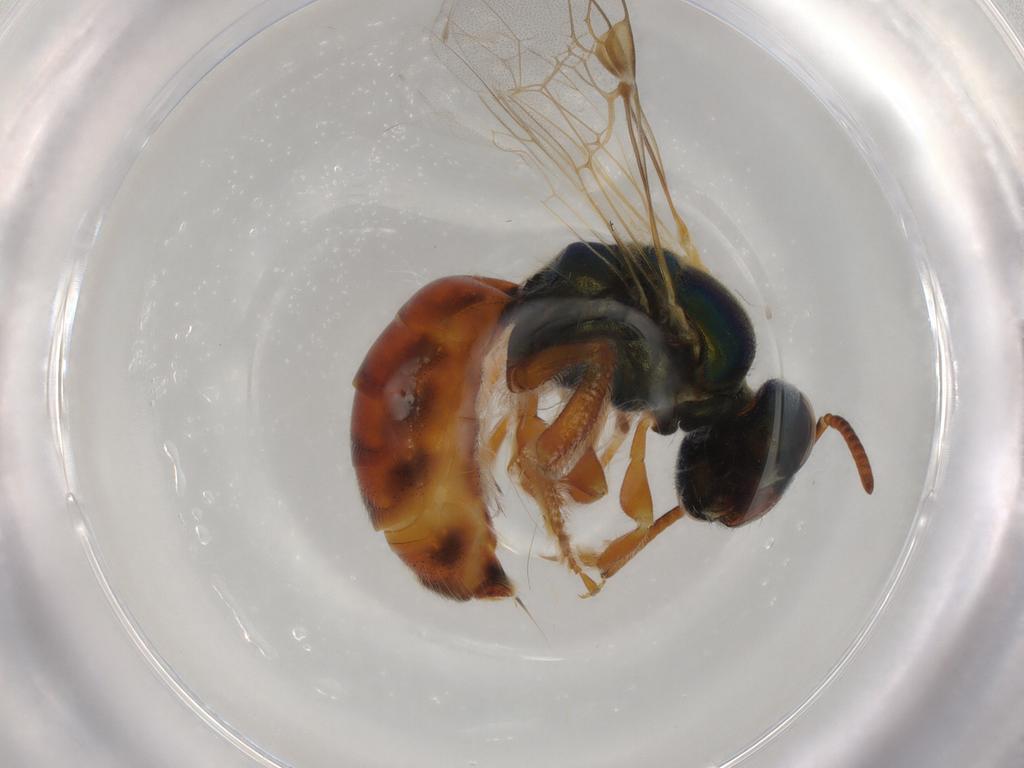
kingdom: Animalia
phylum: Arthropoda
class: Insecta
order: Hymenoptera
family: Halictidae
